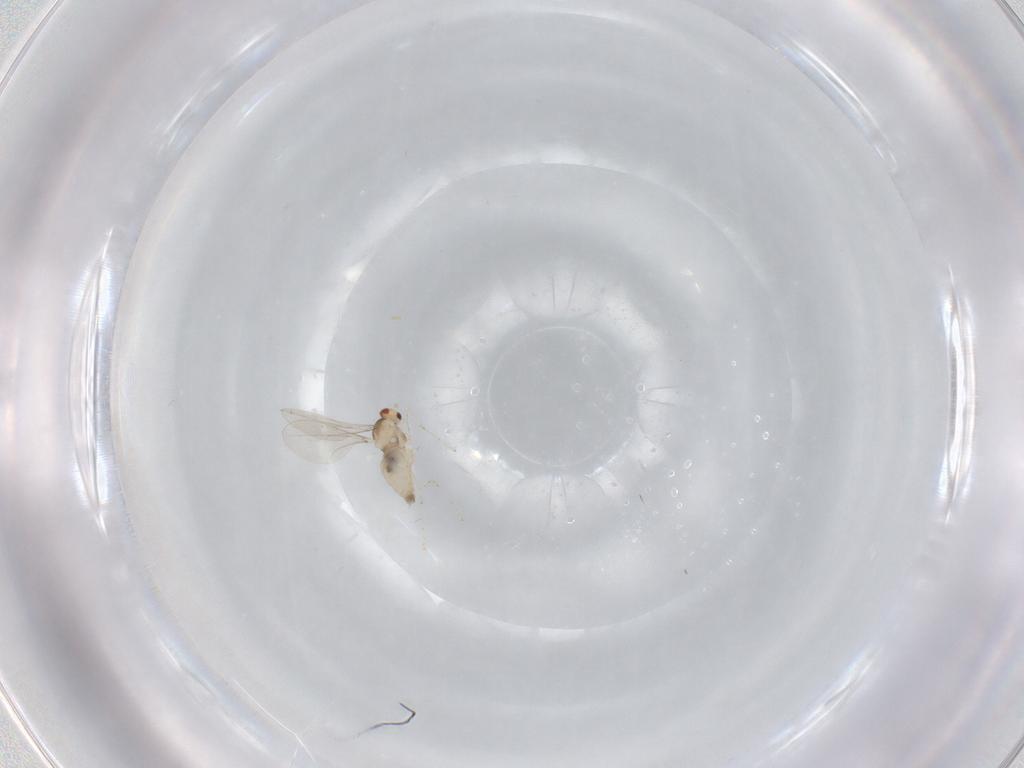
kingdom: Animalia
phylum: Arthropoda
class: Insecta
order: Diptera
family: Cecidomyiidae
